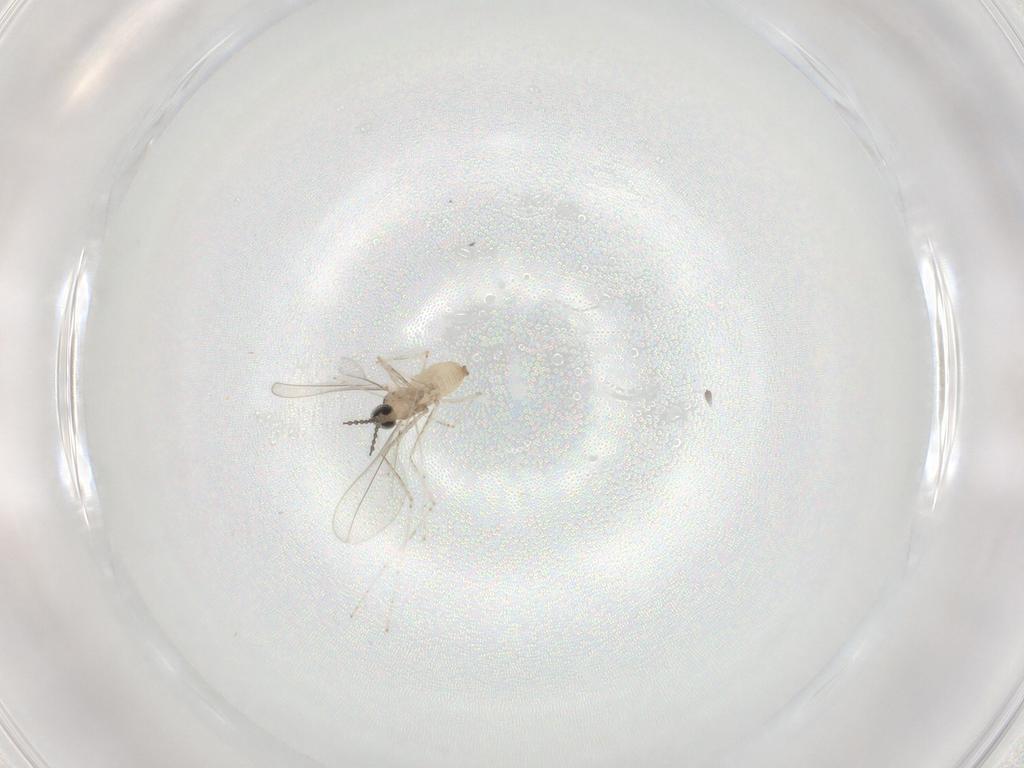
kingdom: Animalia
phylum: Arthropoda
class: Insecta
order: Diptera
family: Cecidomyiidae
